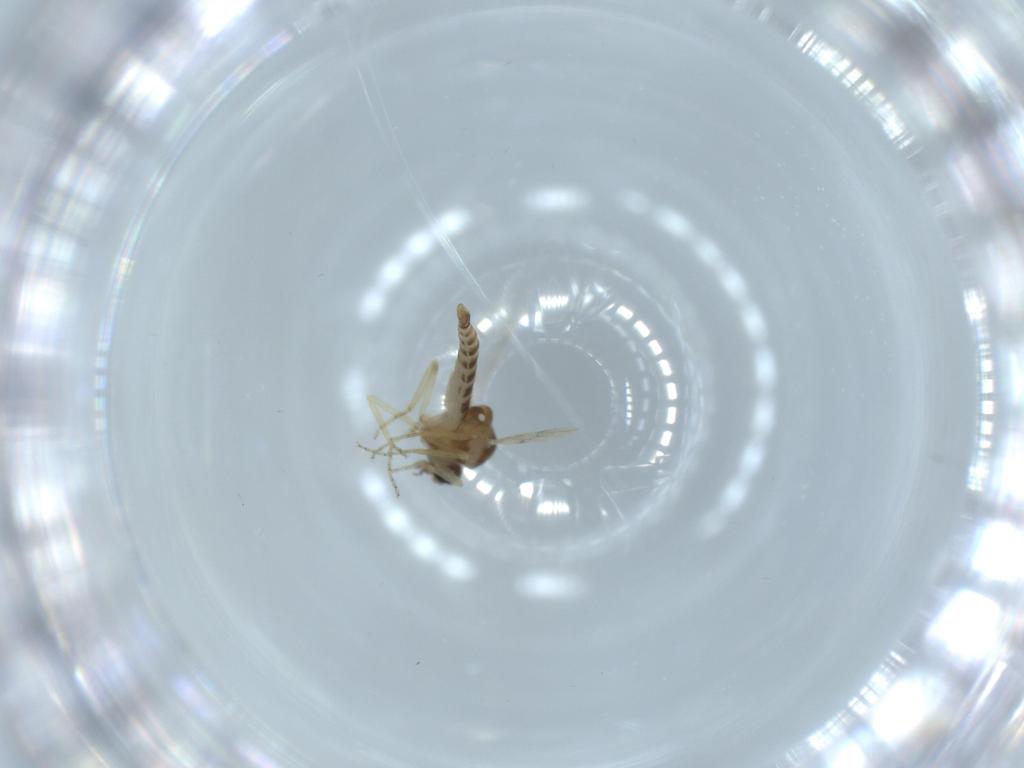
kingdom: Animalia
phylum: Arthropoda
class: Insecta
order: Diptera
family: Ceratopogonidae
